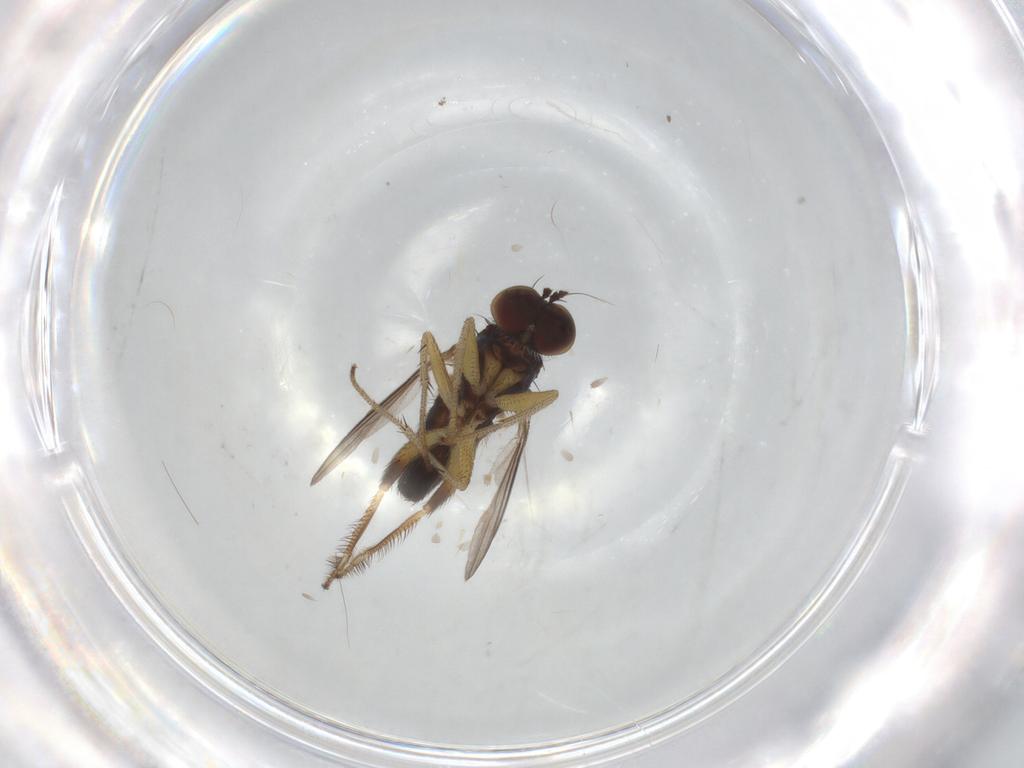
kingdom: Animalia
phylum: Arthropoda
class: Insecta
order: Diptera
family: Dolichopodidae
